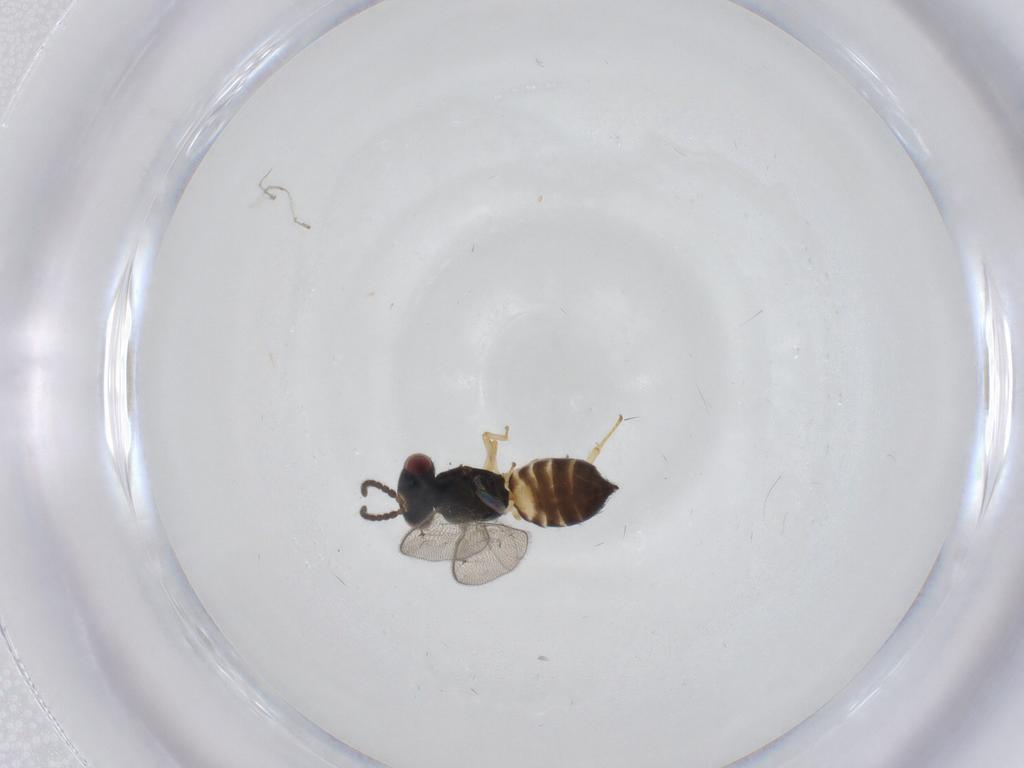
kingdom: Animalia
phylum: Arthropoda
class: Insecta
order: Hymenoptera
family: Pteromalidae
